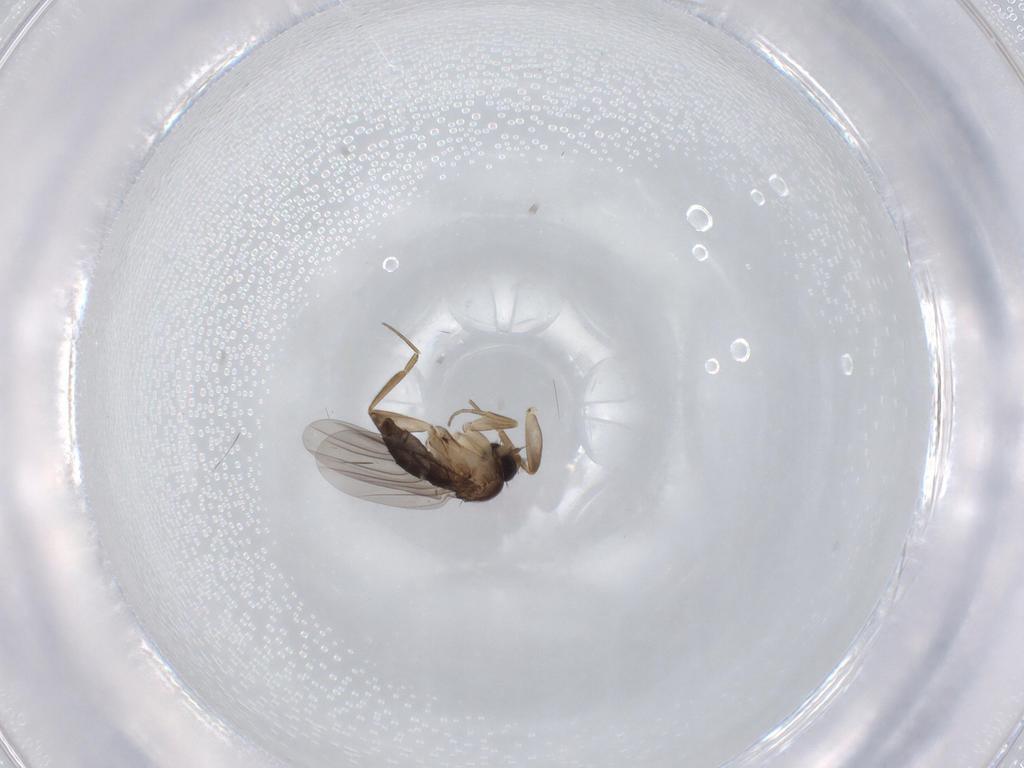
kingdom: Animalia
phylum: Arthropoda
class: Insecta
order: Diptera
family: Phoridae
